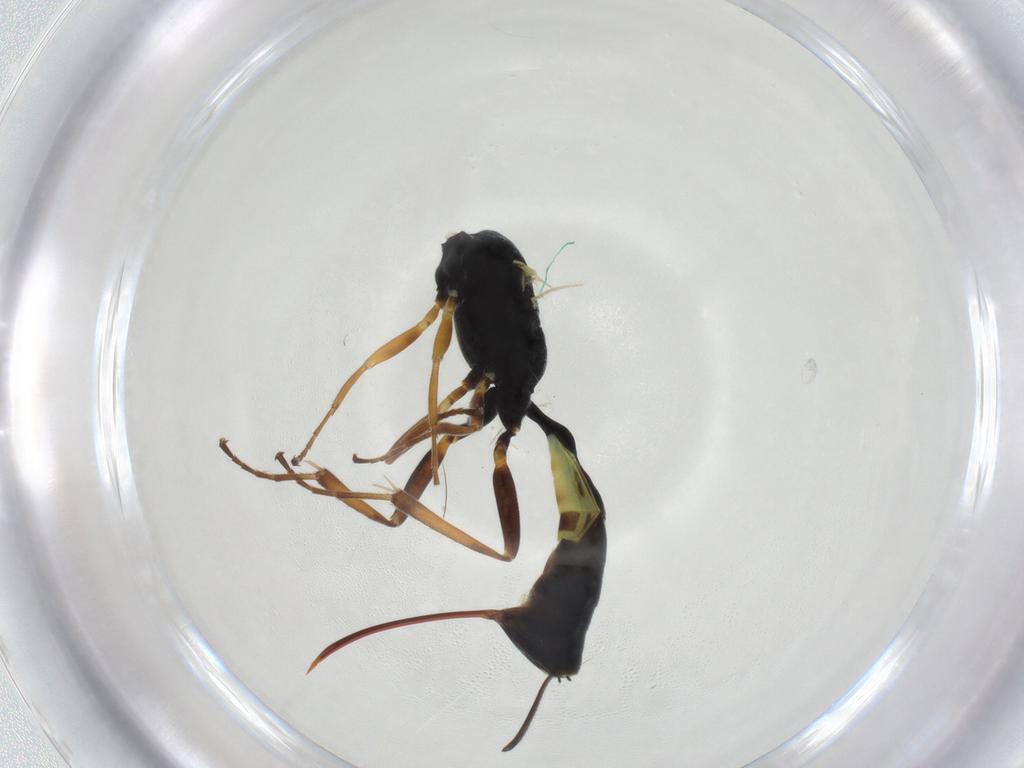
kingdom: Animalia
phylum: Arthropoda
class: Insecta
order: Hymenoptera
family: Ichneumonidae
